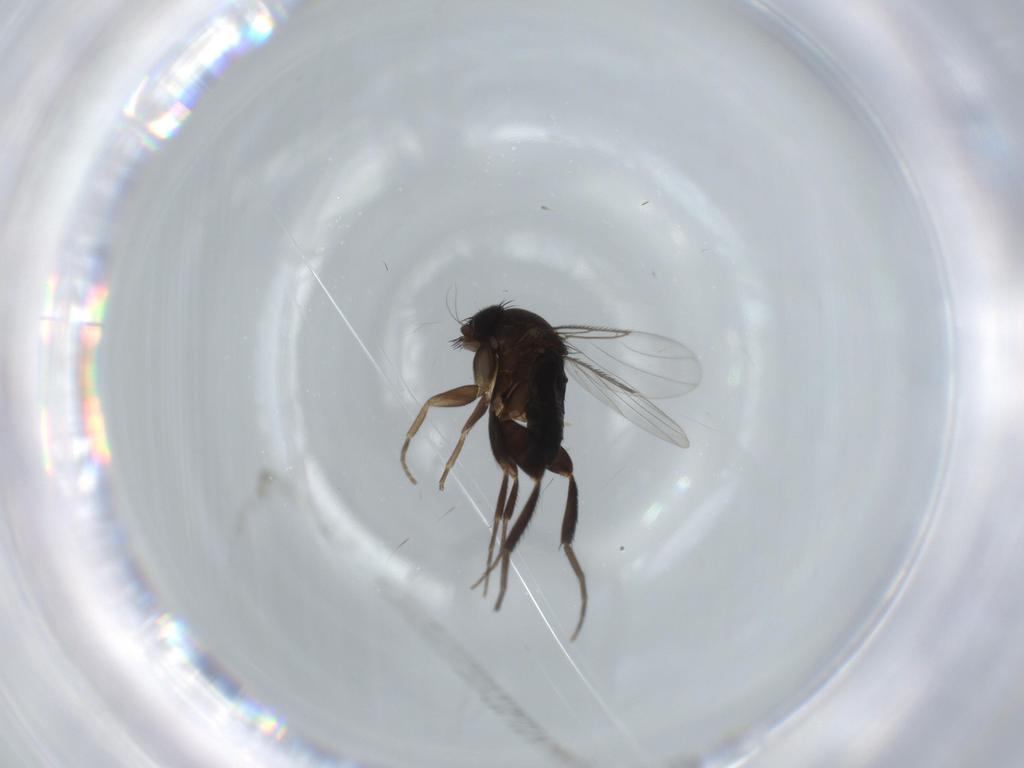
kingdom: Animalia
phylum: Arthropoda
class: Insecta
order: Diptera
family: Phoridae
